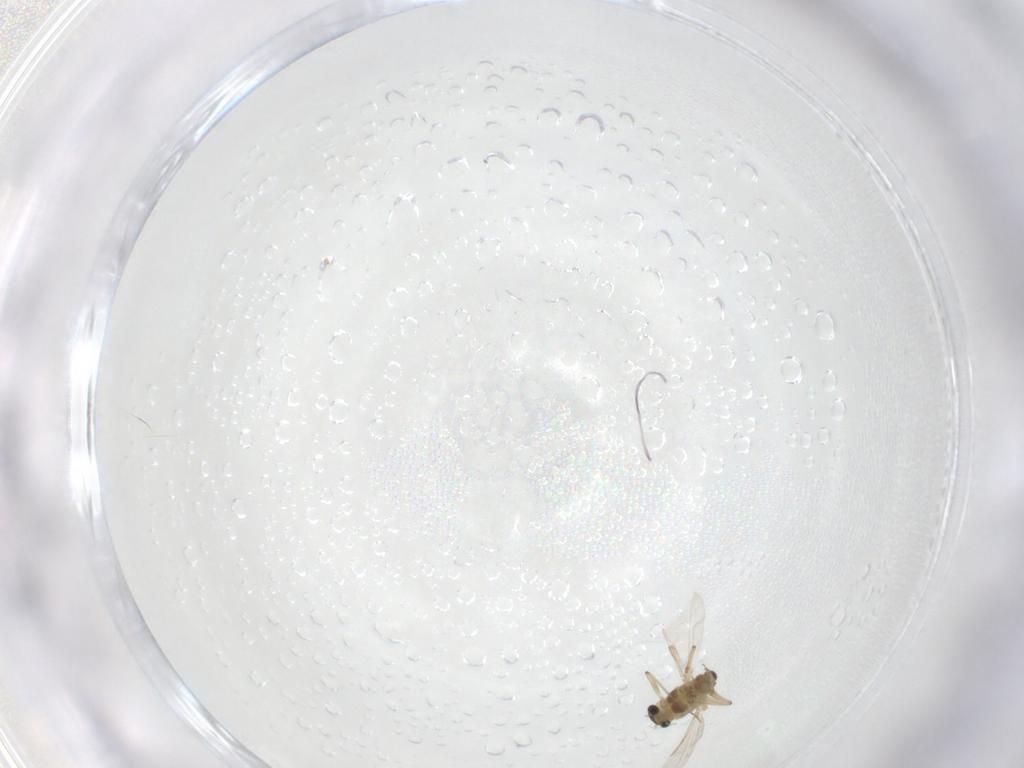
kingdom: Animalia
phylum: Arthropoda
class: Insecta
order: Diptera
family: Chironomidae
